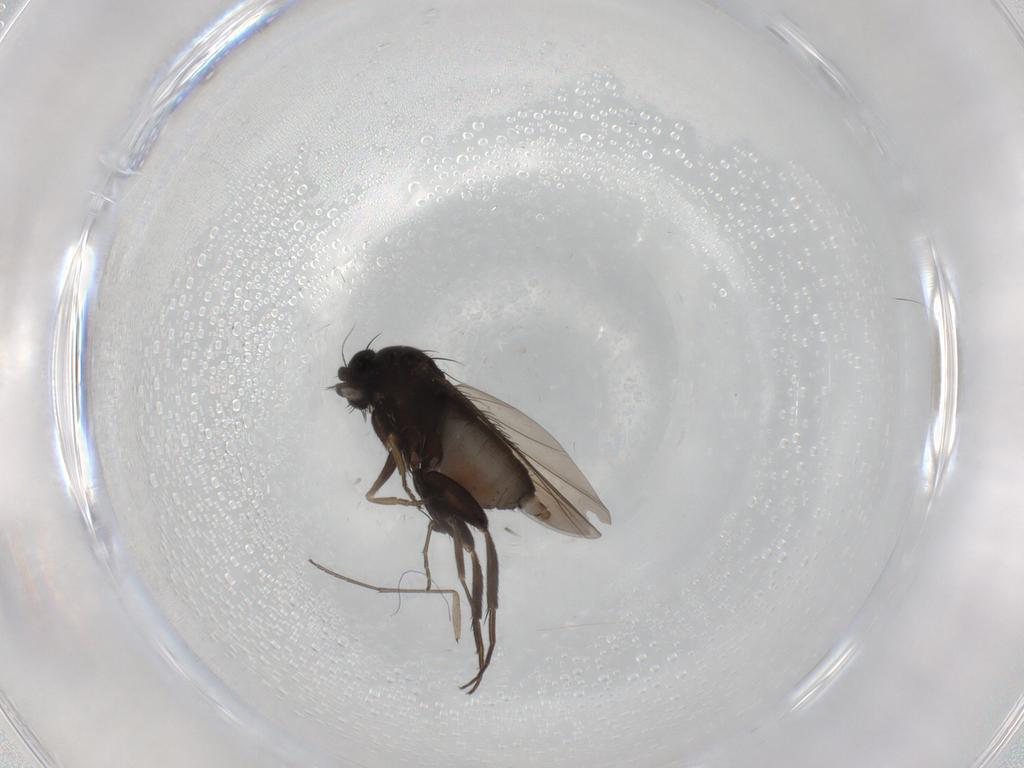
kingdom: Animalia
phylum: Arthropoda
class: Insecta
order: Diptera
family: Phoridae
